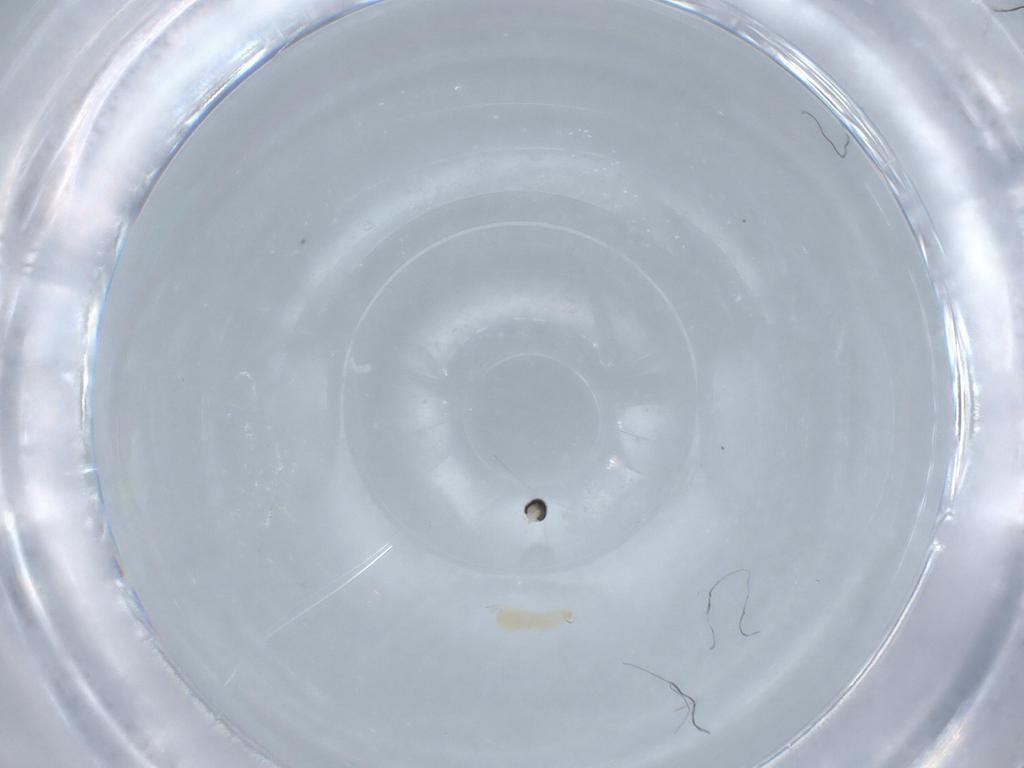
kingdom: Animalia
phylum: Arthropoda
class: Insecta
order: Diptera
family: Cecidomyiidae
